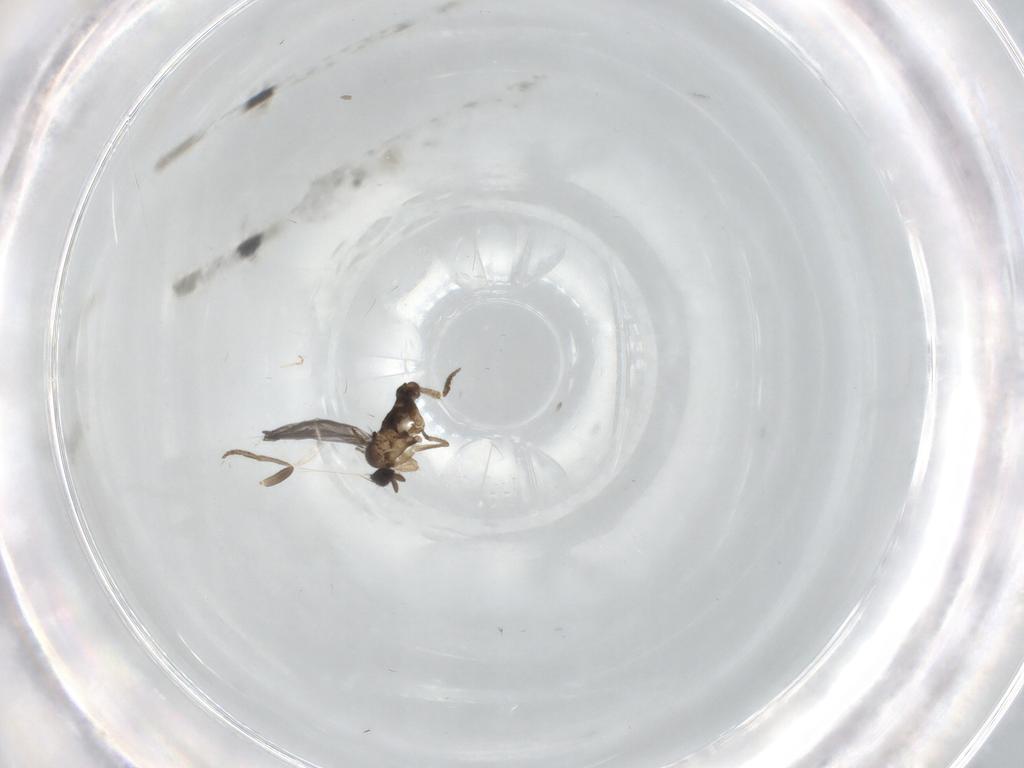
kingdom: Animalia
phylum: Arthropoda
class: Insecta
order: Diptera
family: Cecidomyiidae
